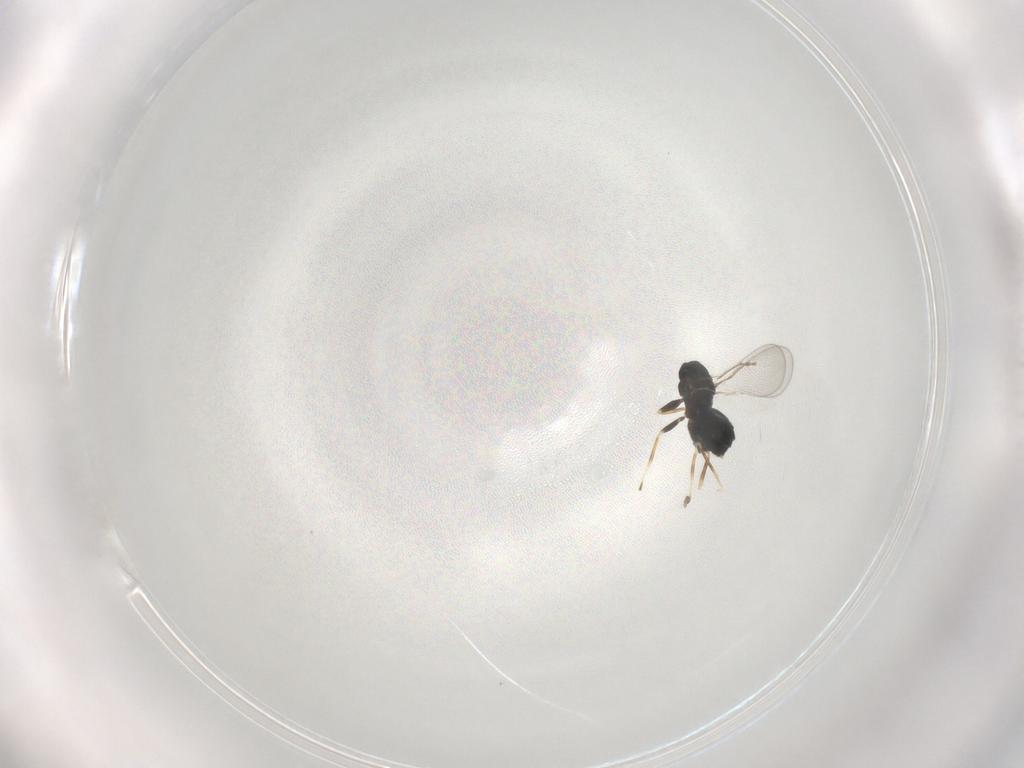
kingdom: Animalia
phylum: Arthropoda
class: Insecta
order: Hymenoptera
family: Eulophidae
